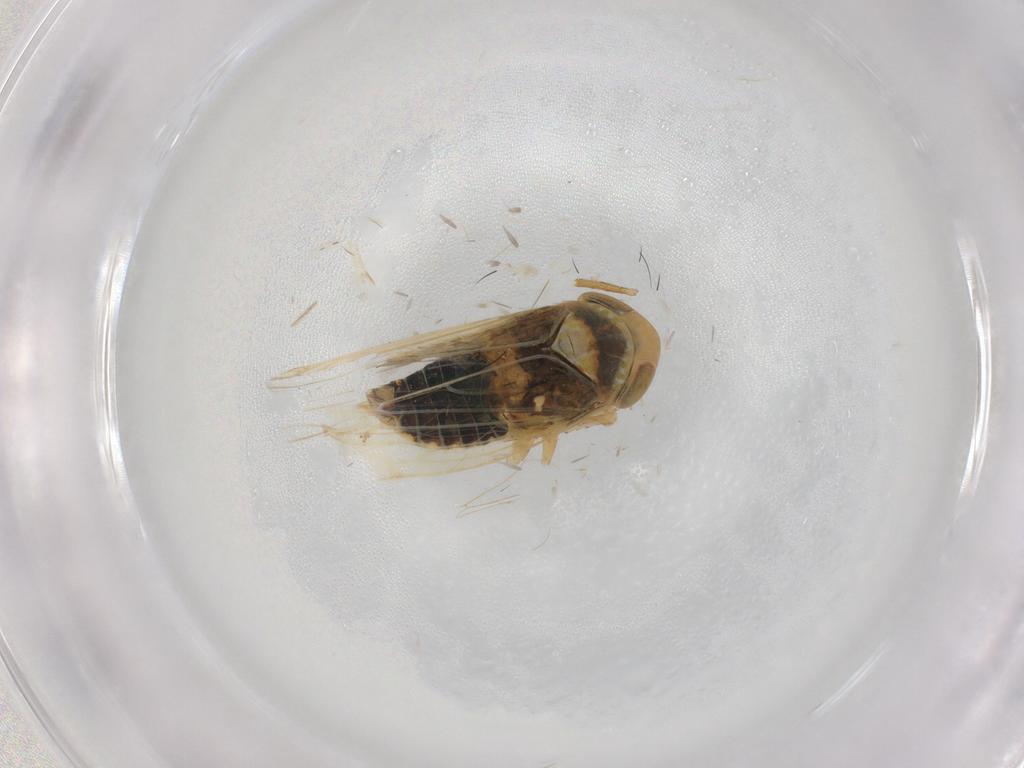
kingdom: Animalia
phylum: Arthropoda
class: Insecta
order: Hemiptera
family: Cicadellidae
